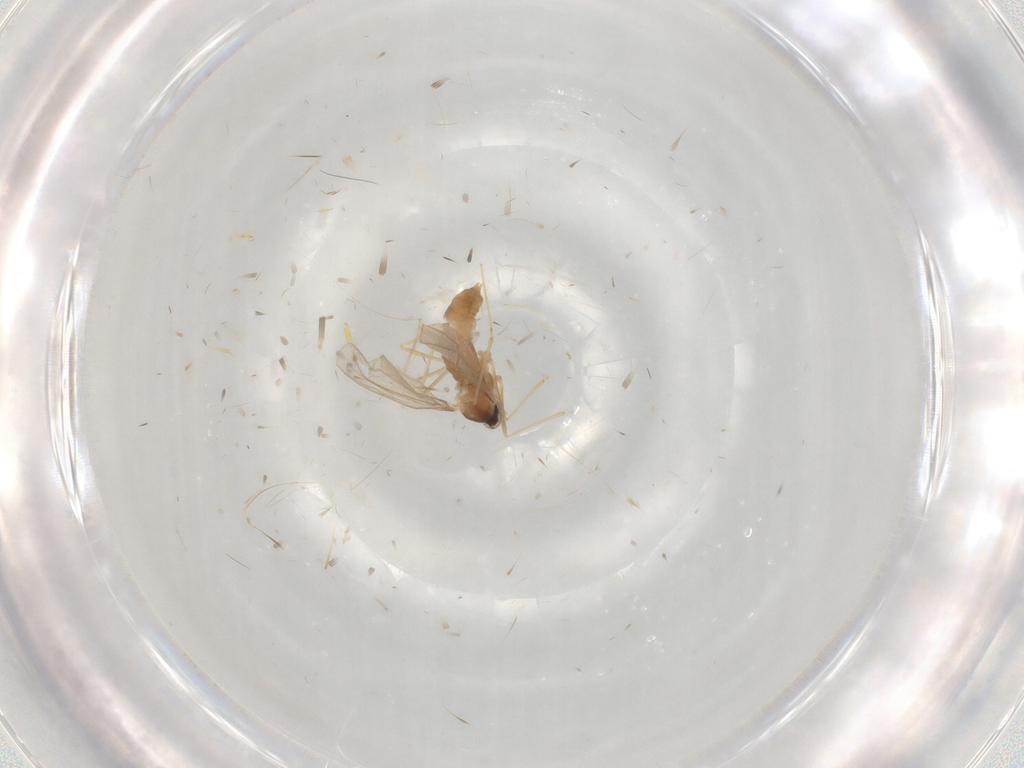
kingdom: Animalia
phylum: Arthropoda
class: Insecta
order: Diptera
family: Cecidomyiidae
